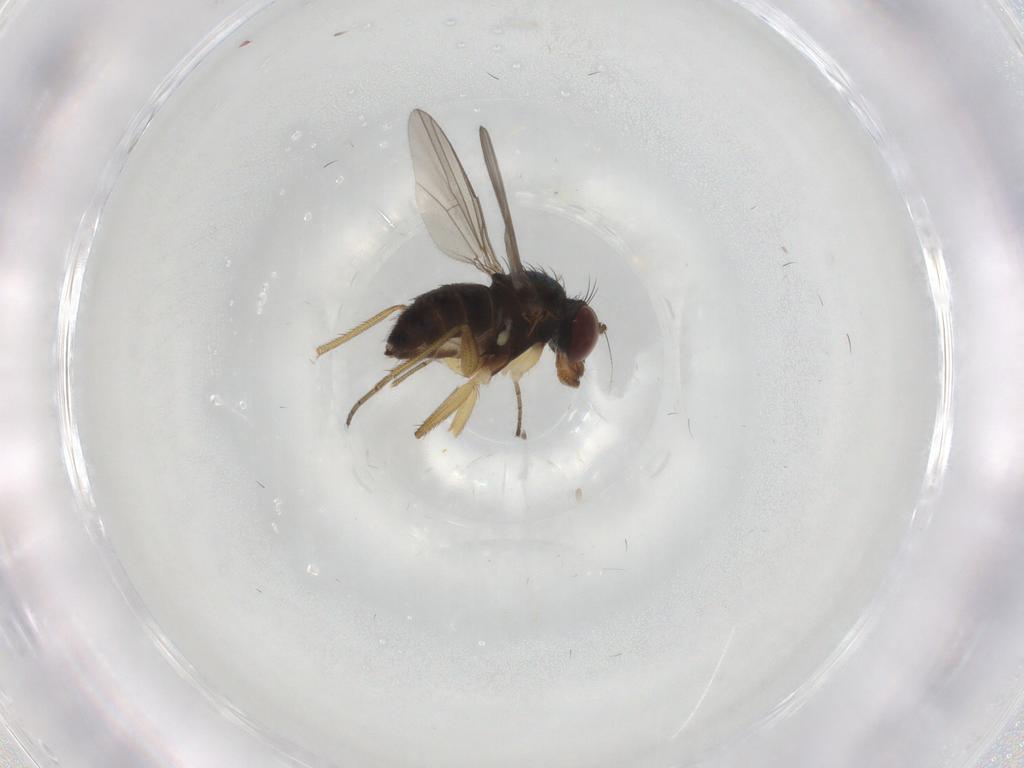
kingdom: Animalia
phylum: Arthropoda
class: Insecta
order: Diptera
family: Dolichopodidae
